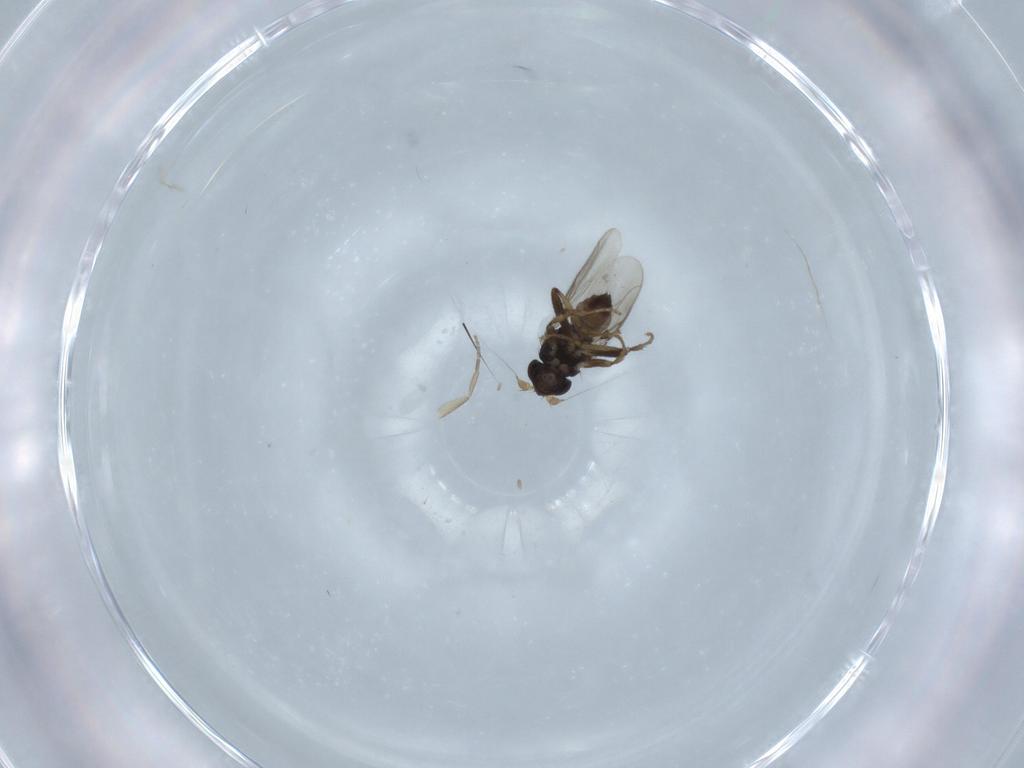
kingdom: Animalia
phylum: Arthropoda
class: Insecta
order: Diptera
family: Sphaeroceridae
